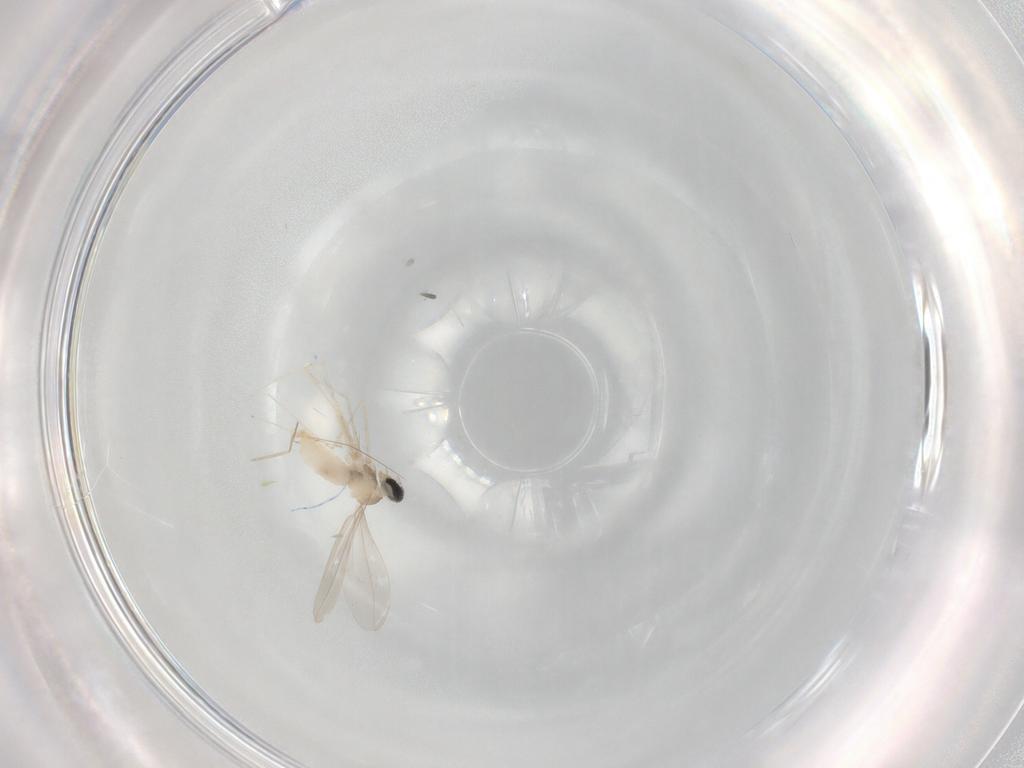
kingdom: Animalia
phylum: Arthropoda
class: Insecta
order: Diptera
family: Cecidomyiidae
